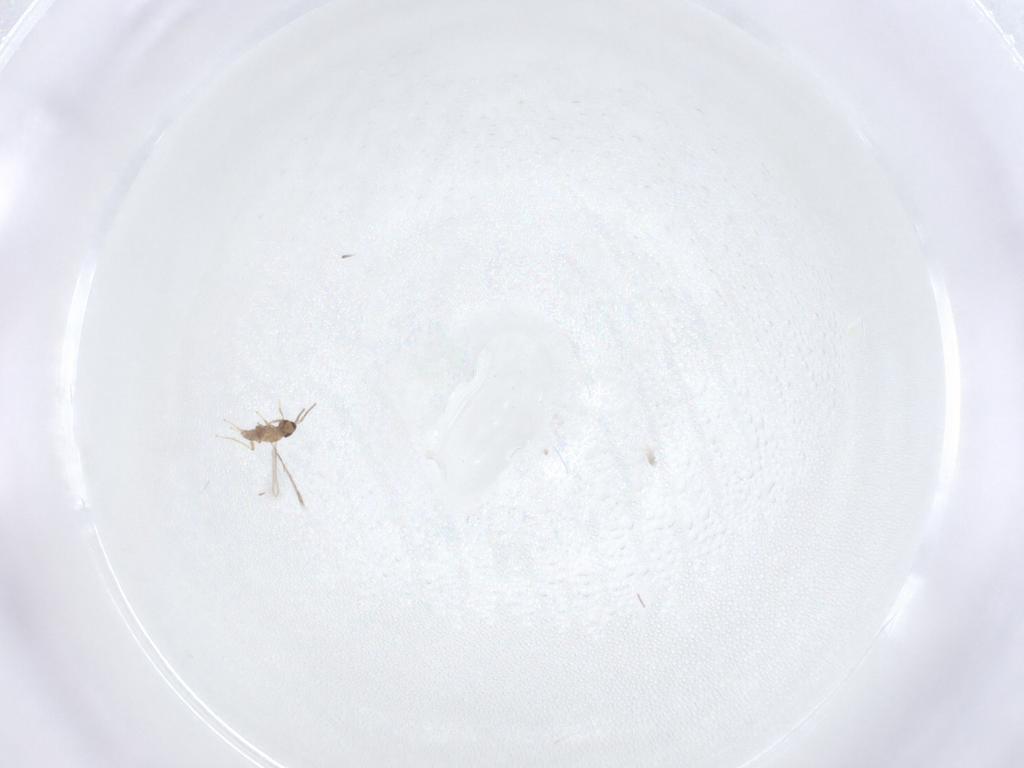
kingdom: Animalia
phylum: Arthropoda
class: Insecta
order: Hymenoptera
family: Mymaridae
